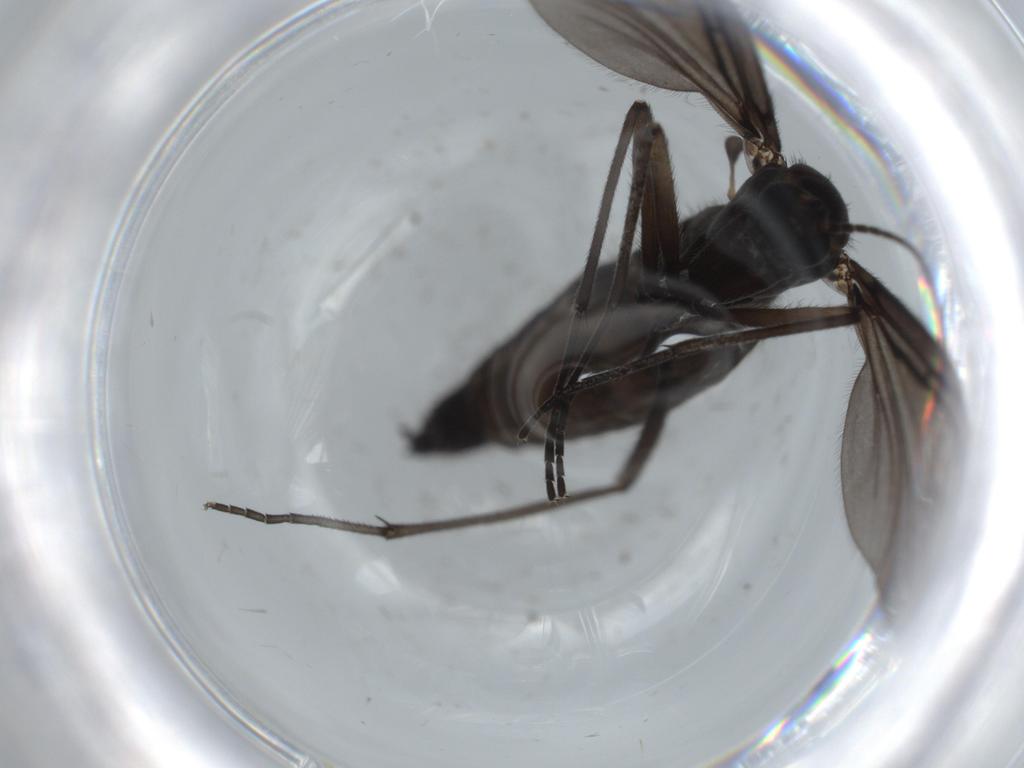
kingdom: Animalia
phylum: Arthropoda
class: Insecta
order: Diptera
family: Sciaridae
